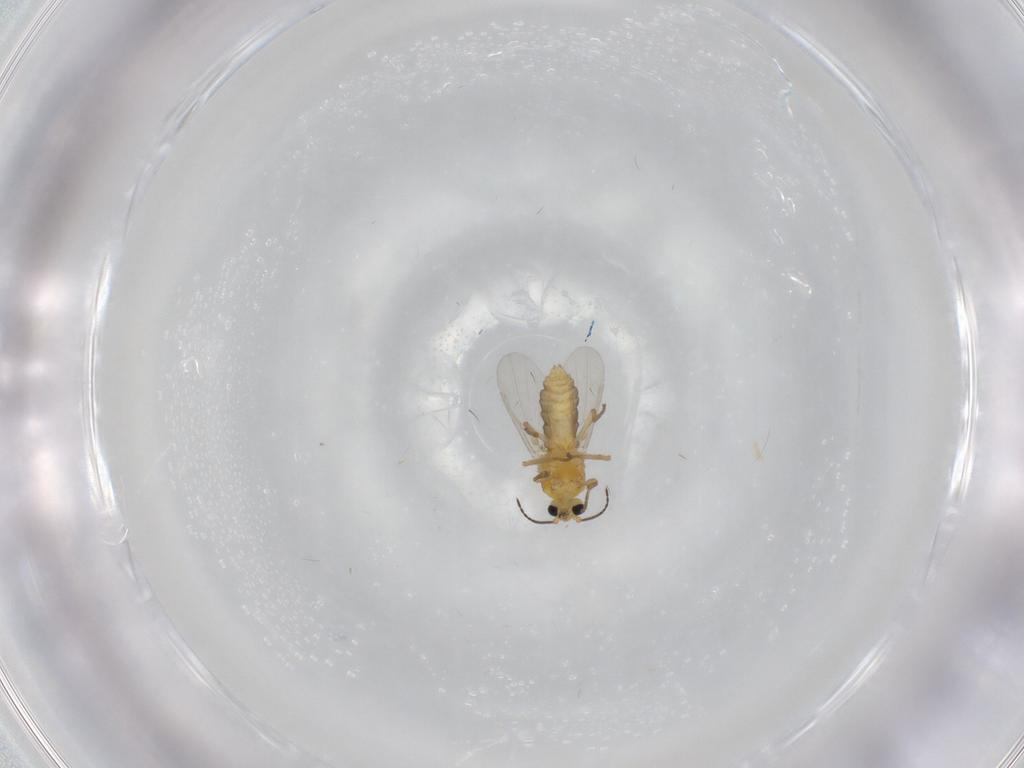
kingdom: Animalia
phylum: Arthropoda
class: Insecta
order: Diptera
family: Ceratopogonidae
